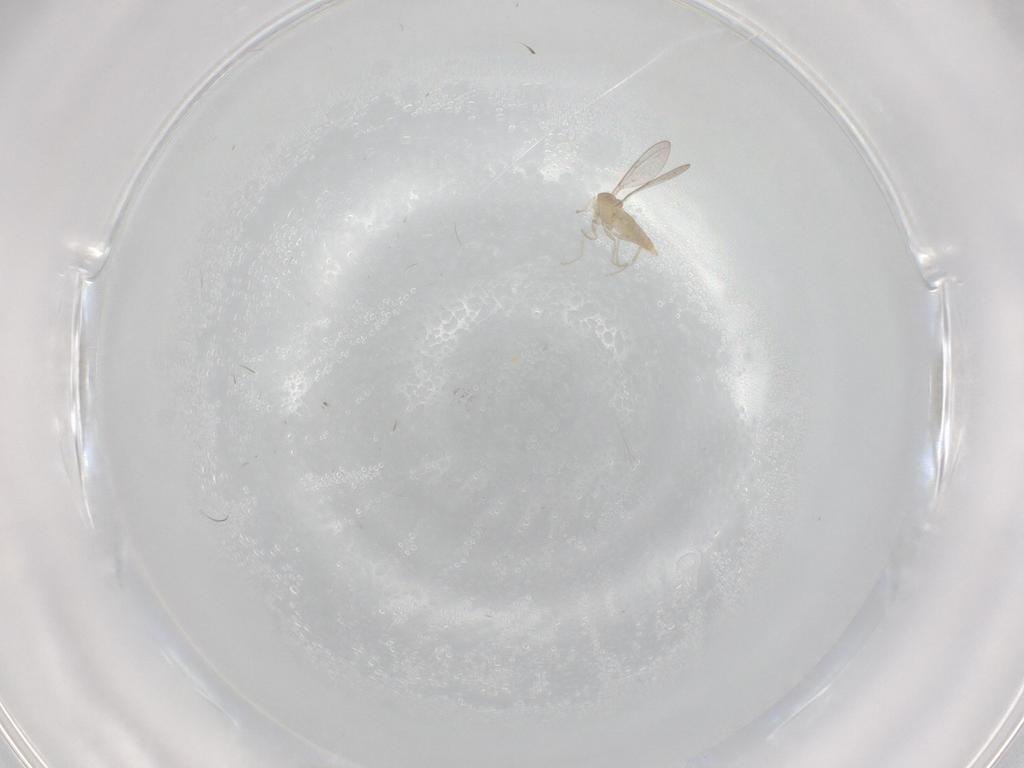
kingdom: Animalia
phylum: Arthropoda
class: Insecta
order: Diptera
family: Cecidomyiidae
